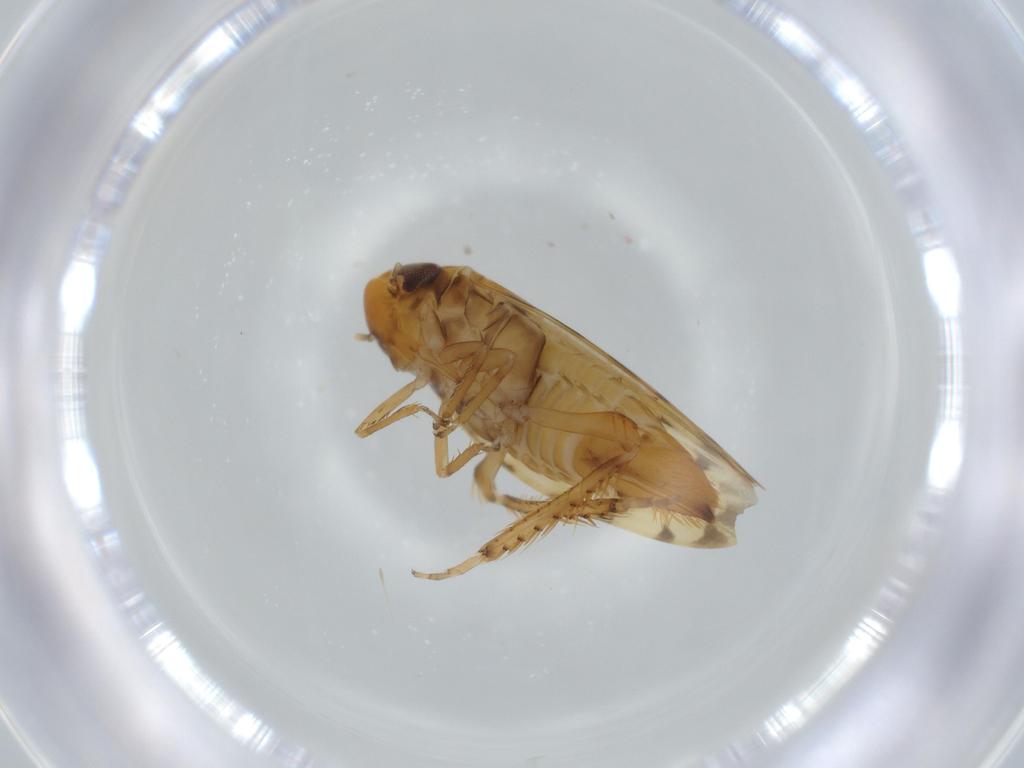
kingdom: Animalia
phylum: Arthropoda
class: Insecta
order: Hemiptera
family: Cicadellidae
